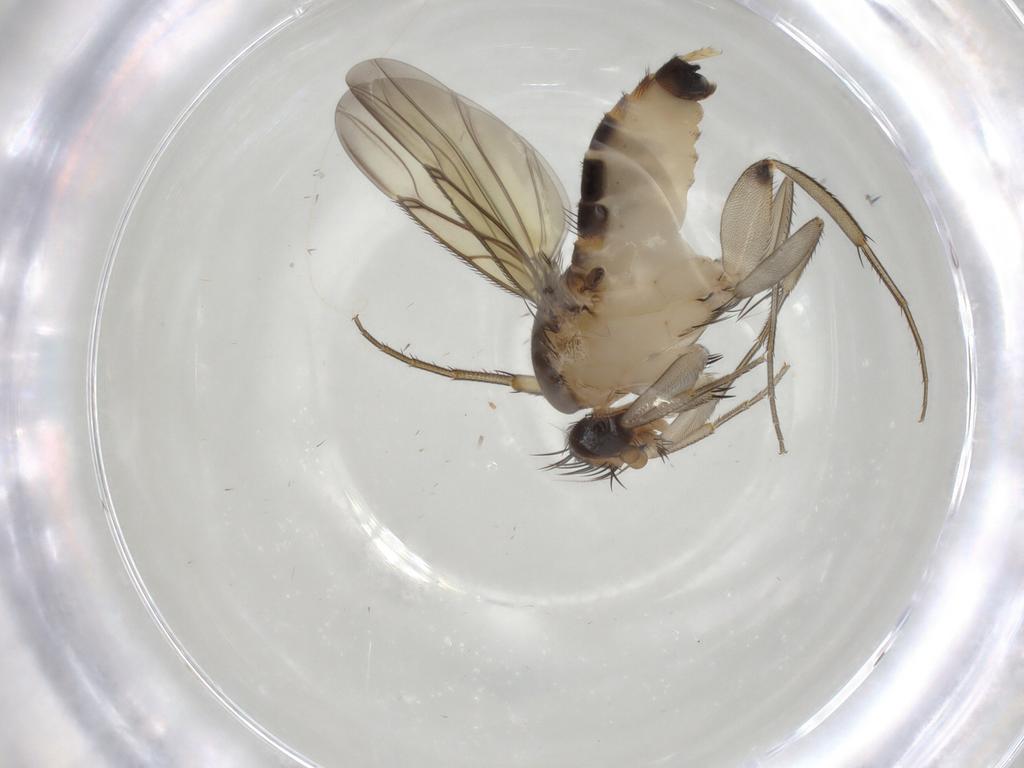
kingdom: Animalia
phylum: Arthropoda
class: Insecta
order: Diptera
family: Phoridae
